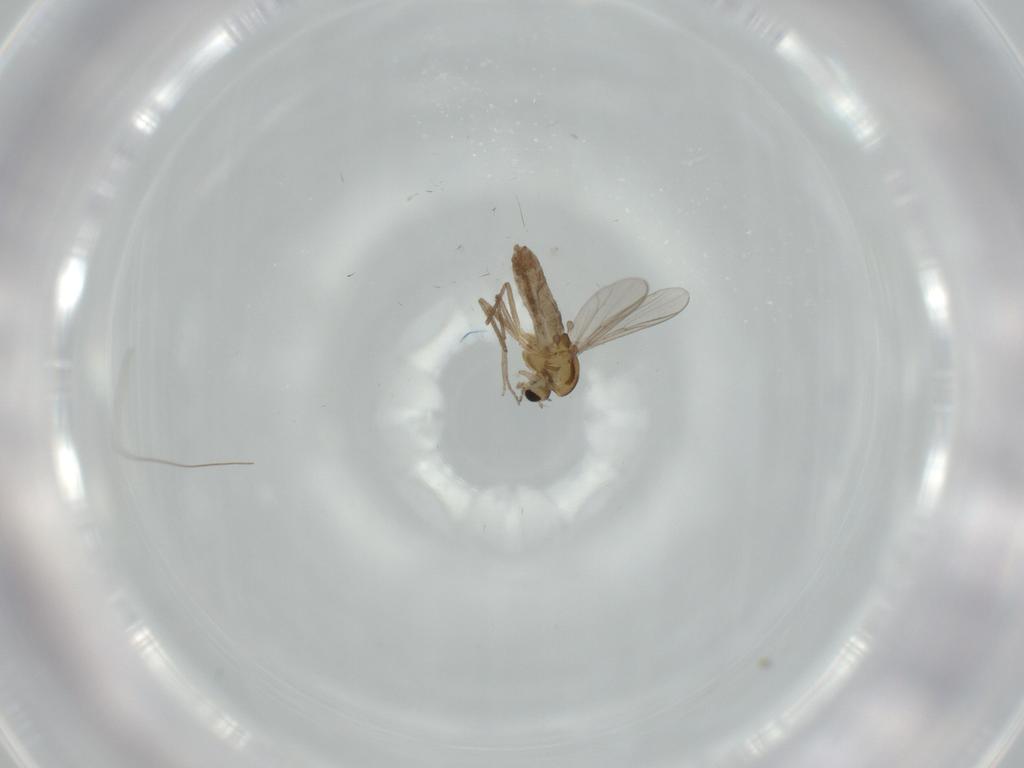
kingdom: Animalia
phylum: Arthropoda
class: Insecta
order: Diptera
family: Chironomidae
